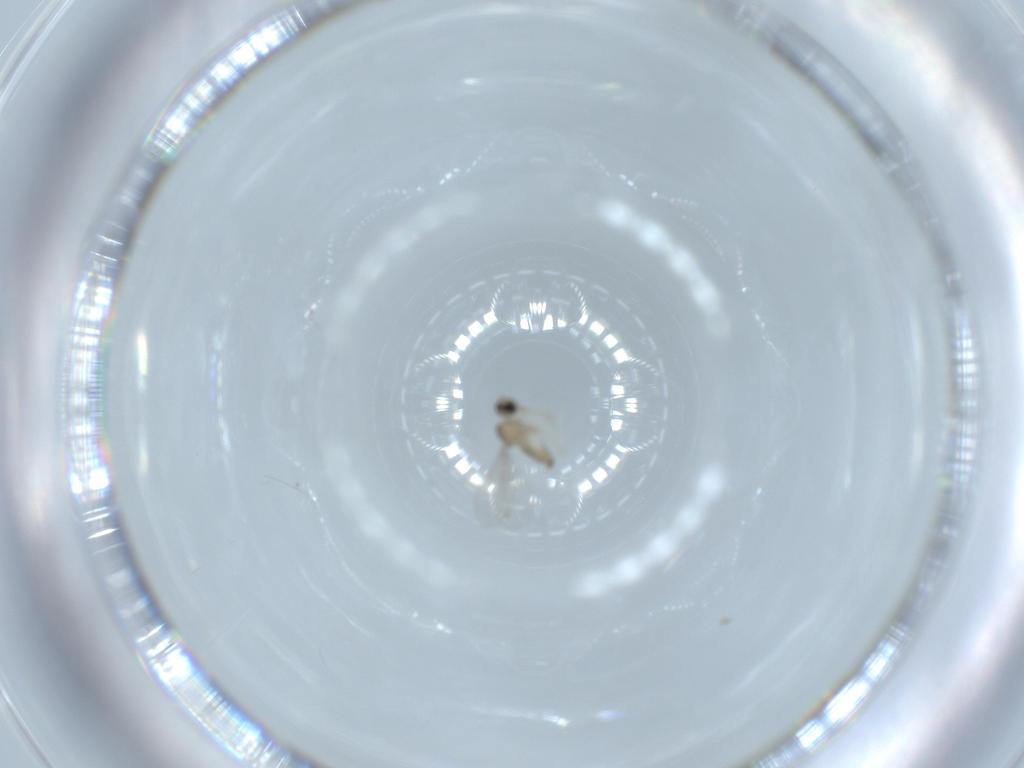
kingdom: Animalia
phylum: Arthropoda
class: Insecta
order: Diptera
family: Cecidomyiidae
